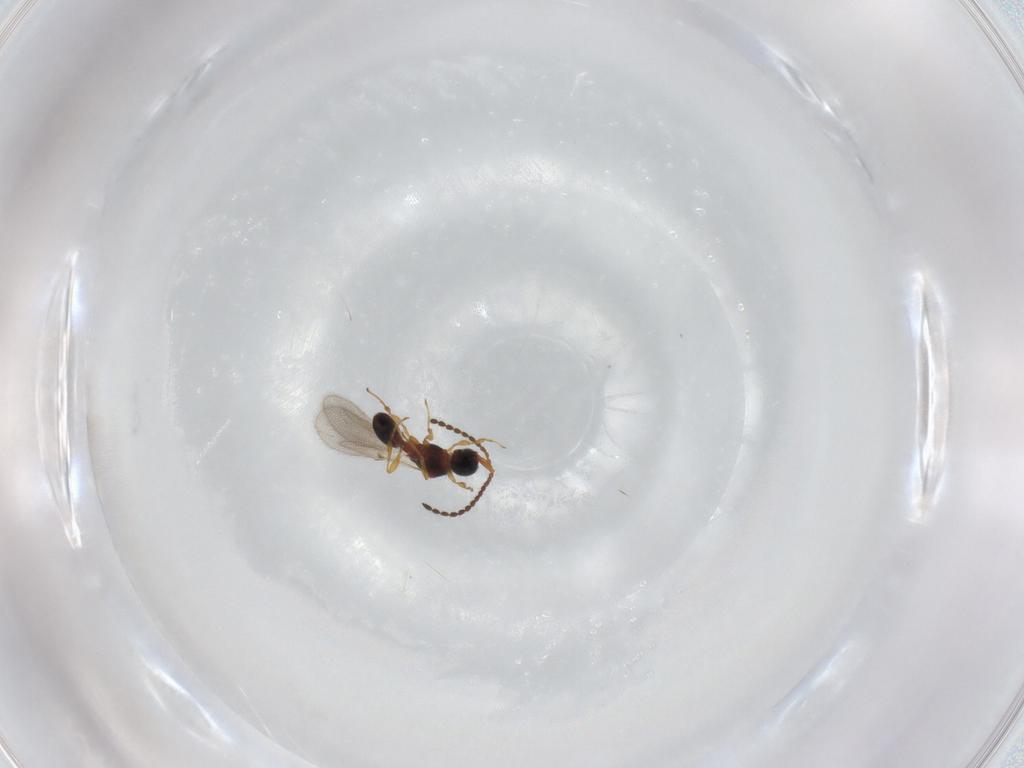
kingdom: Animalia
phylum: Arthropoda
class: Insecta
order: Hymenoptera
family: Diapriidae
